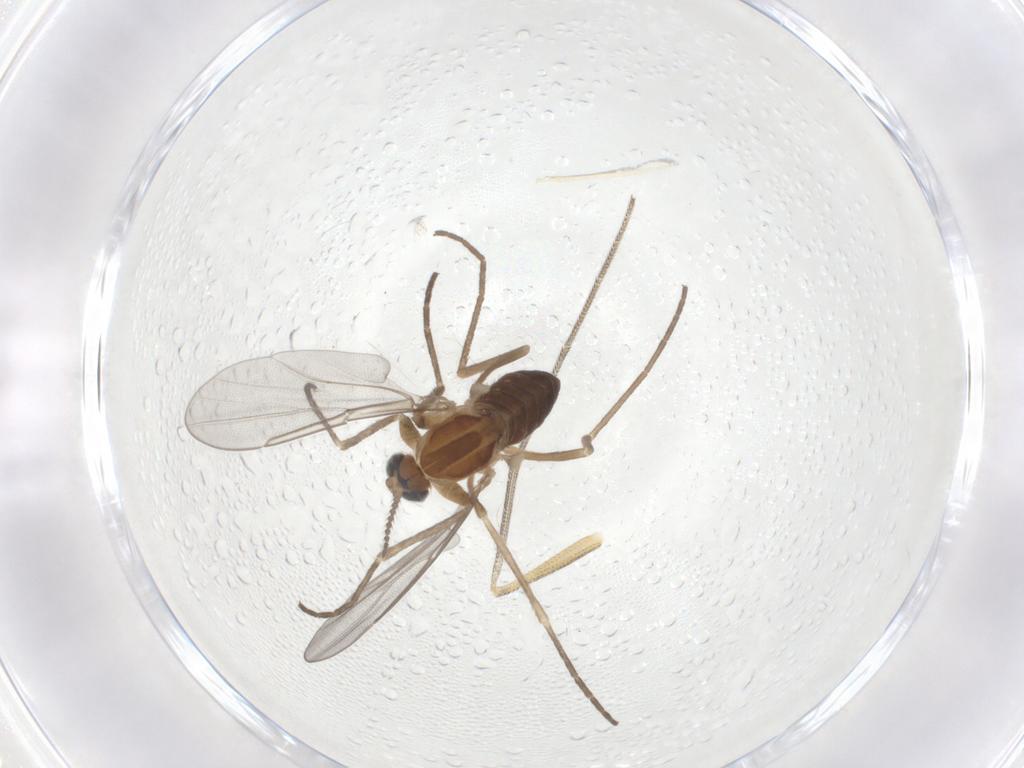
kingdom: Animalia
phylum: Arthropoda
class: Insecta
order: Diptera
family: Cecidomyiidae
